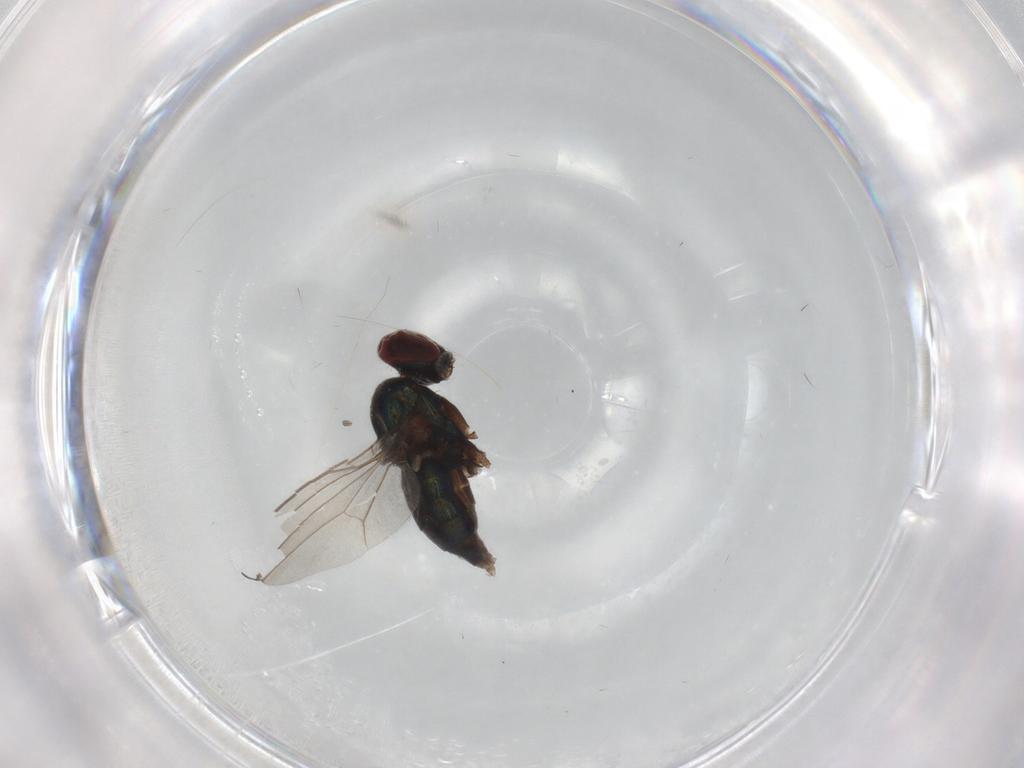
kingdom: Animalia
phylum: Arthropoda
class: Insecta
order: Diptera
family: Dolichopodidae
